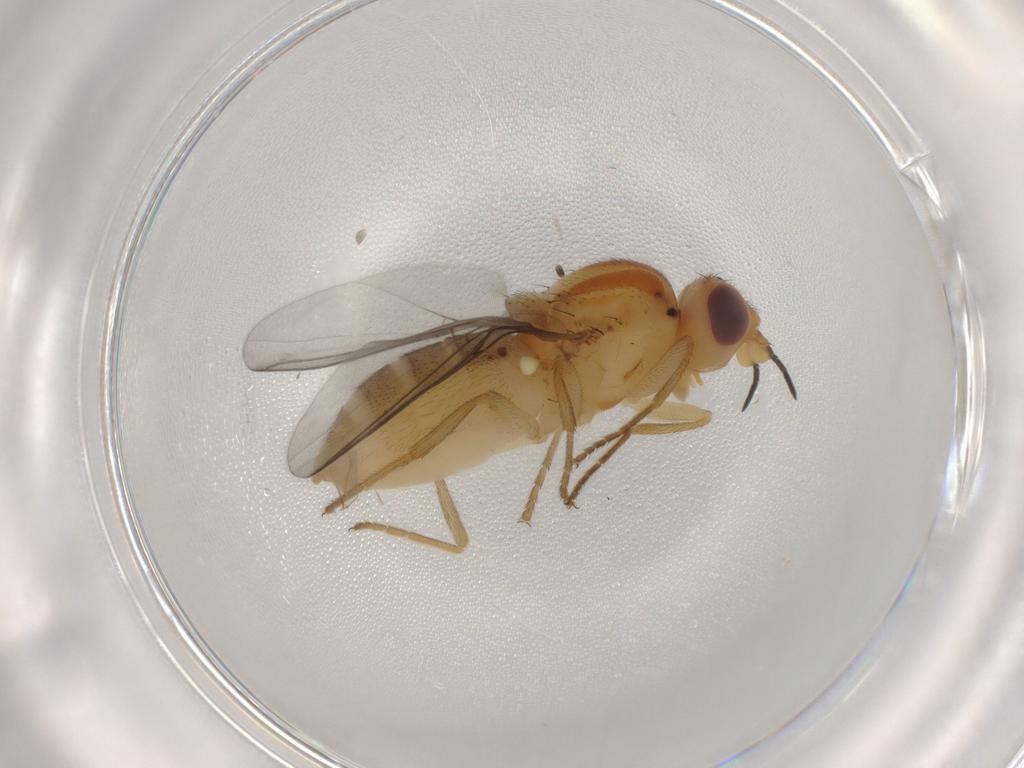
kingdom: Animalia
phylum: Arthropoda
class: Insecta
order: Diptera
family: Chloropidae
